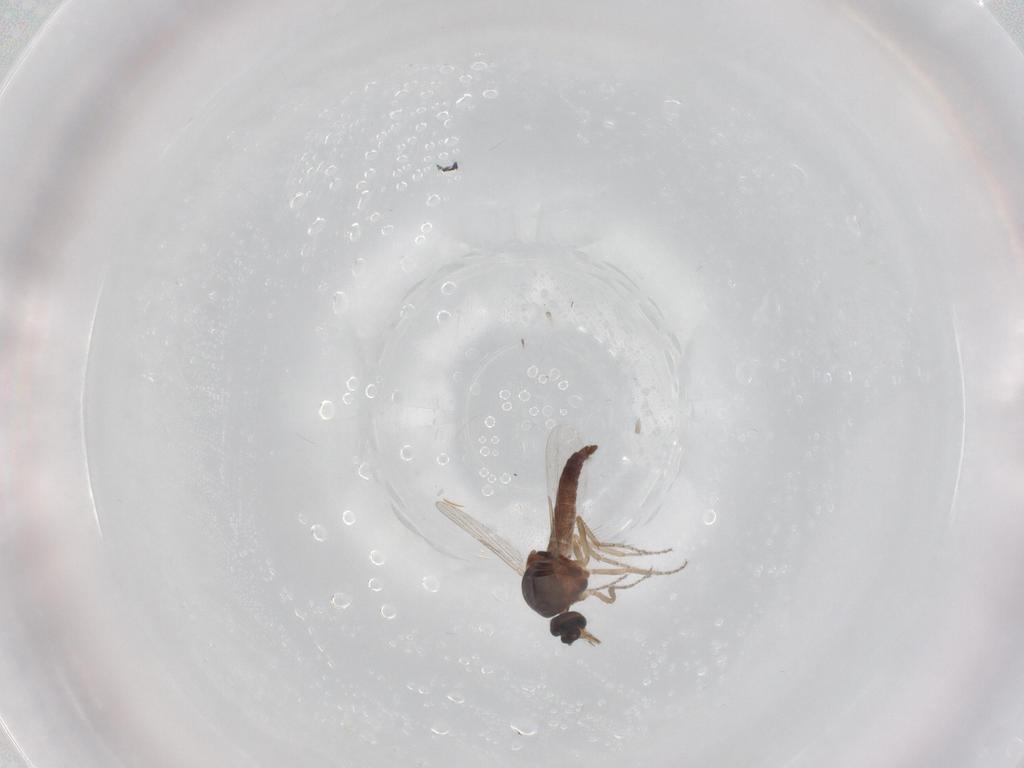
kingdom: Animalia
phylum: Arthropoda
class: Insecta
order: Diptera
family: Ceratopogonidae
